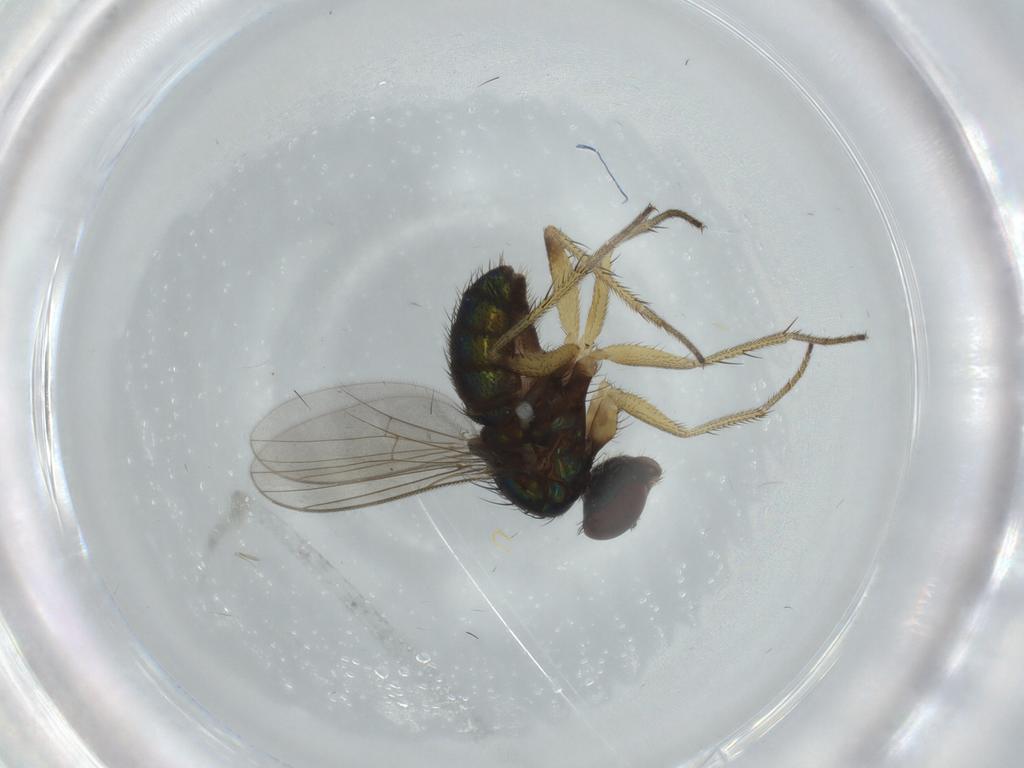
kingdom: Animalia
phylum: Arthropoda
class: Insecta
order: Diptera
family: Dolichopodidae
